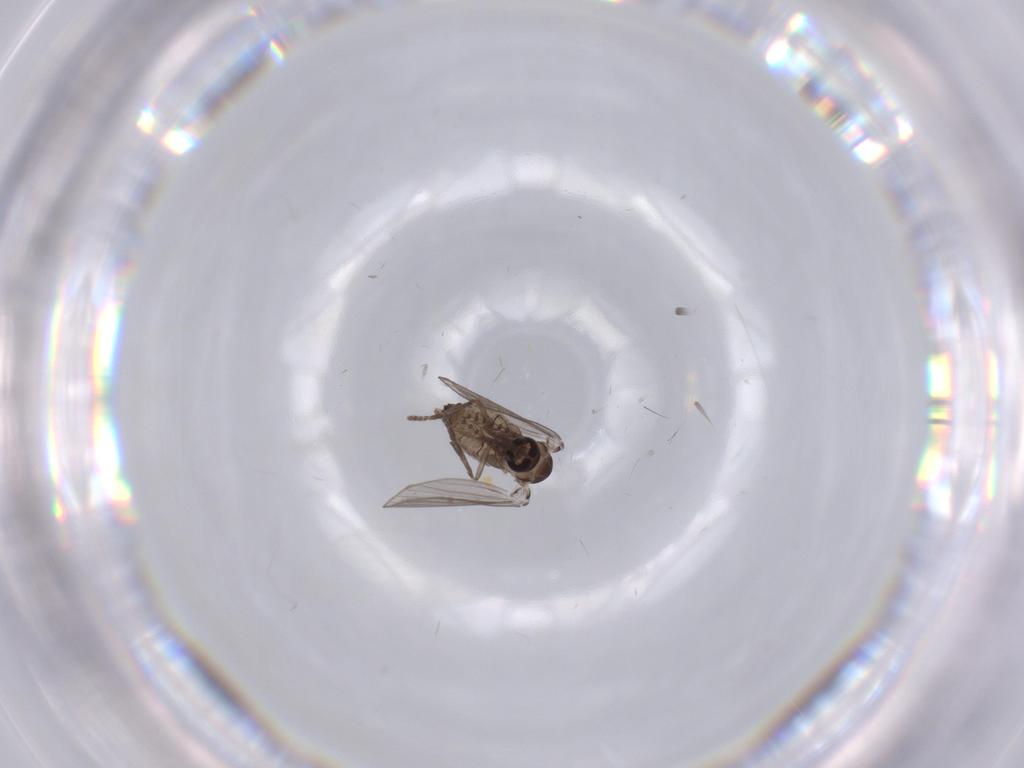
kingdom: Animalia
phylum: Arthropoda
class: Insecta
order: Diptera
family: Psychodidae
